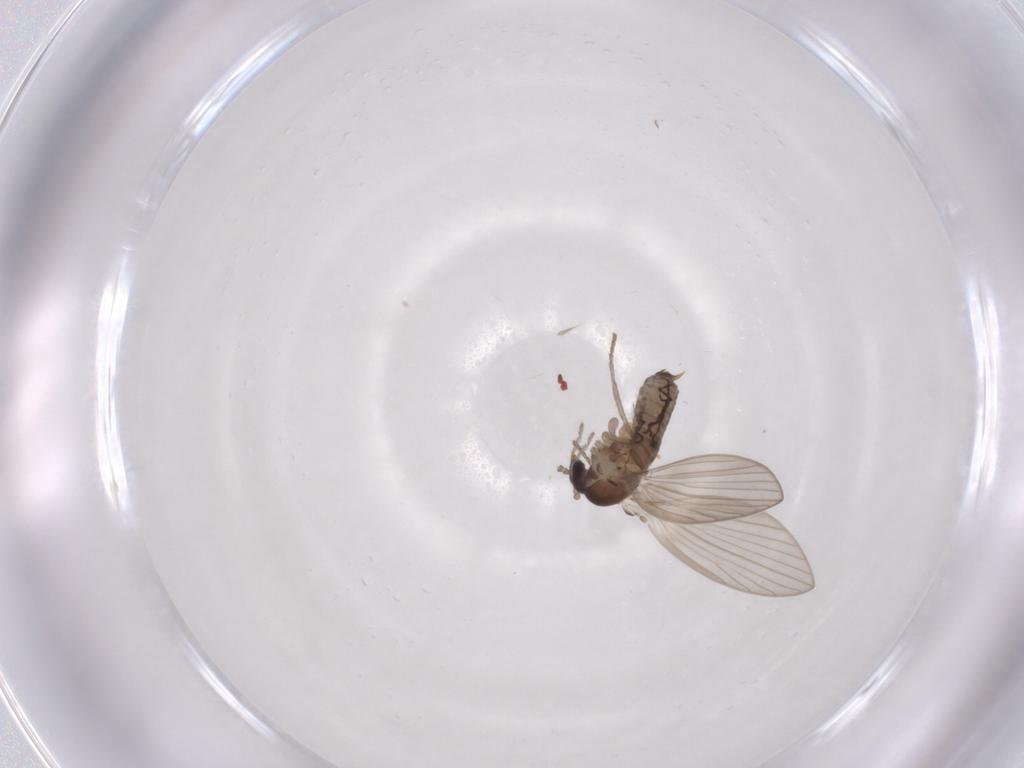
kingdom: Animalia
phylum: Arthropoda
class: Insecta
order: Diptera
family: Psychodidae
